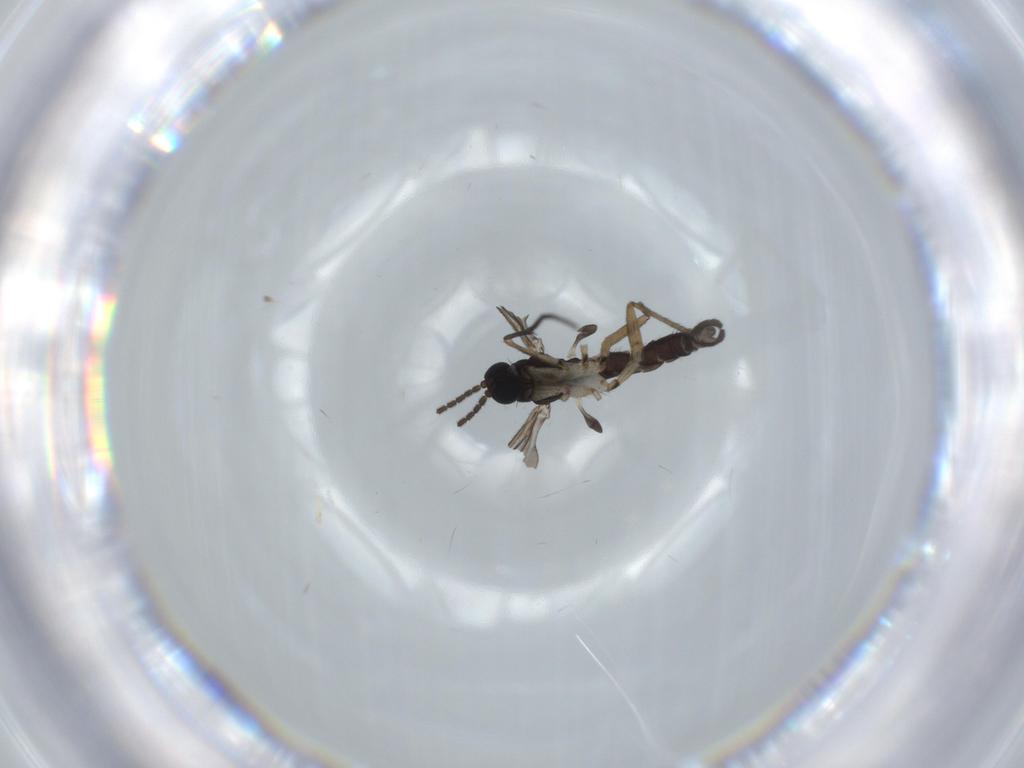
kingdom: Animalia
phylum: Arthropoda
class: Insecta
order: Diptera
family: Sciaridae
